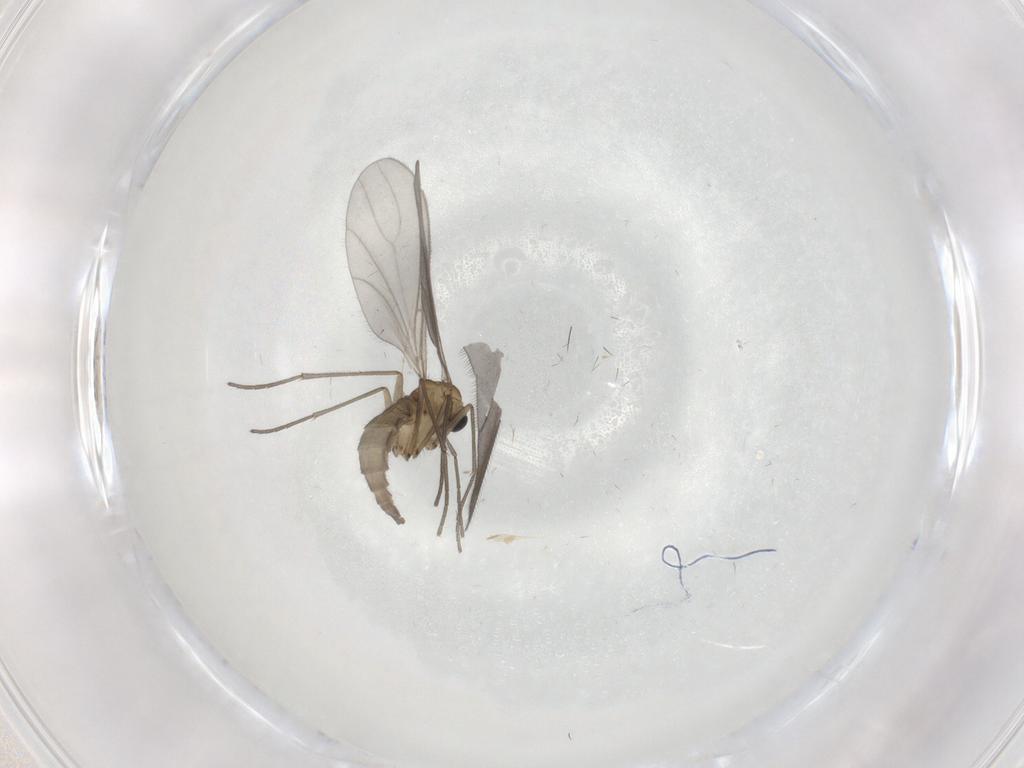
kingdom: Animalia
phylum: Arthropoda
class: Insecta
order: Diptera
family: Sciaridae
